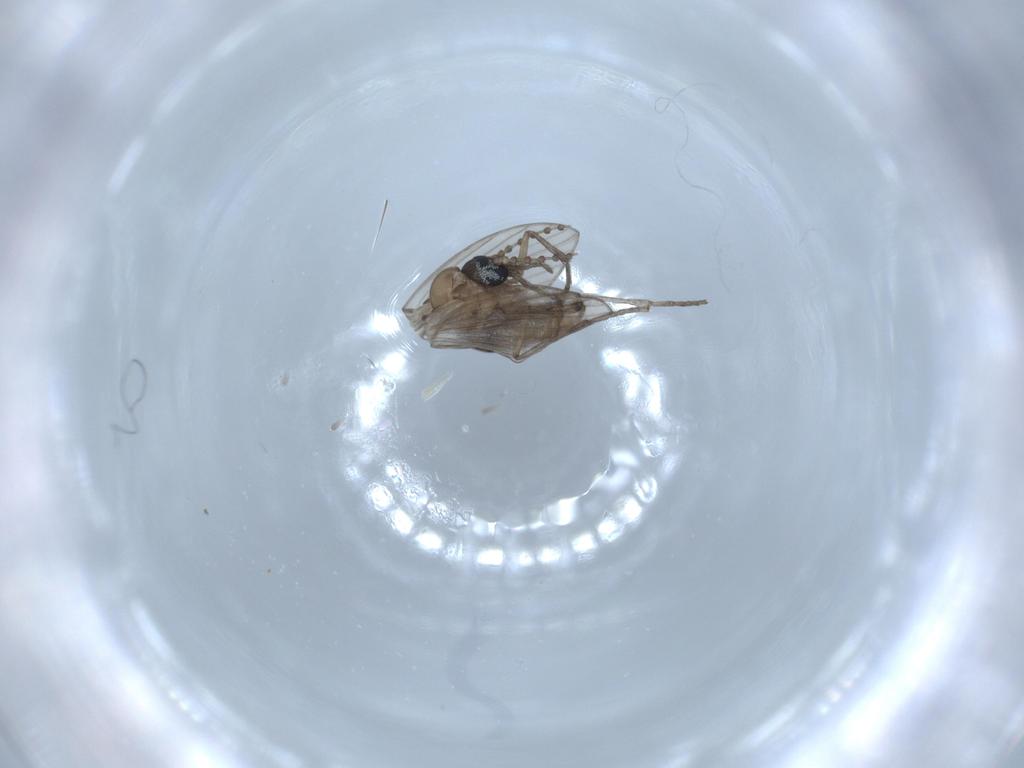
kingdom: Animalia
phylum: Arthropoda
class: Insecta
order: Diptera
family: Psychodidae
